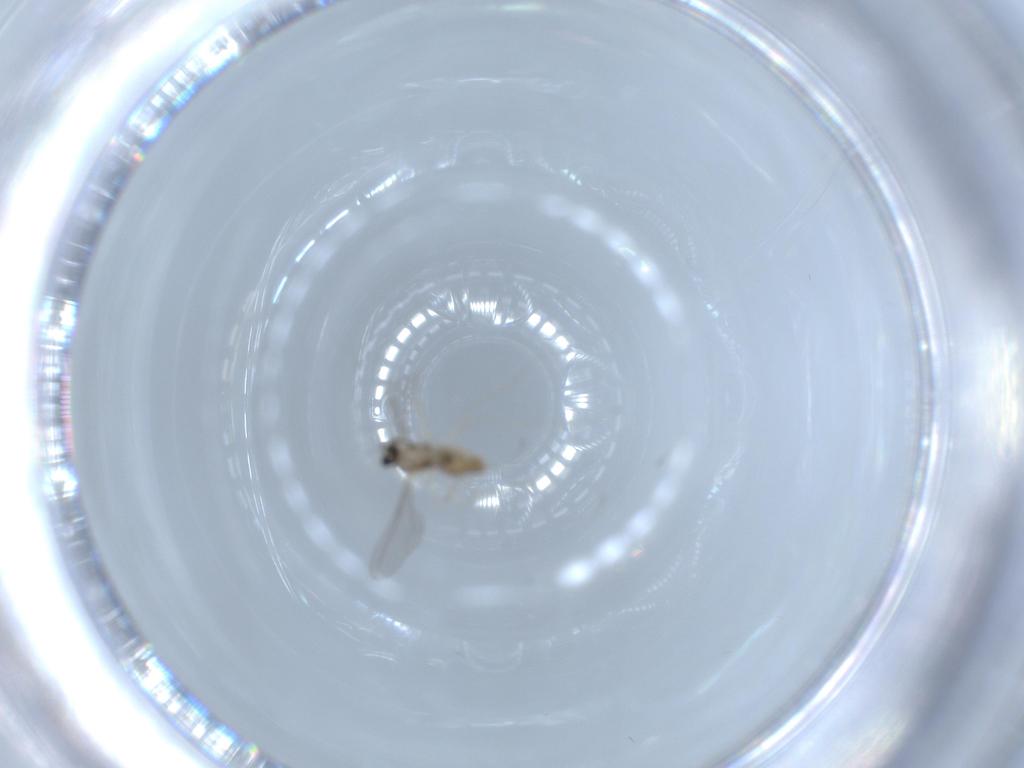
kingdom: Animalia
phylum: Arthropoda
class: Insecta
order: Diptera
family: Cecidomyiidae
